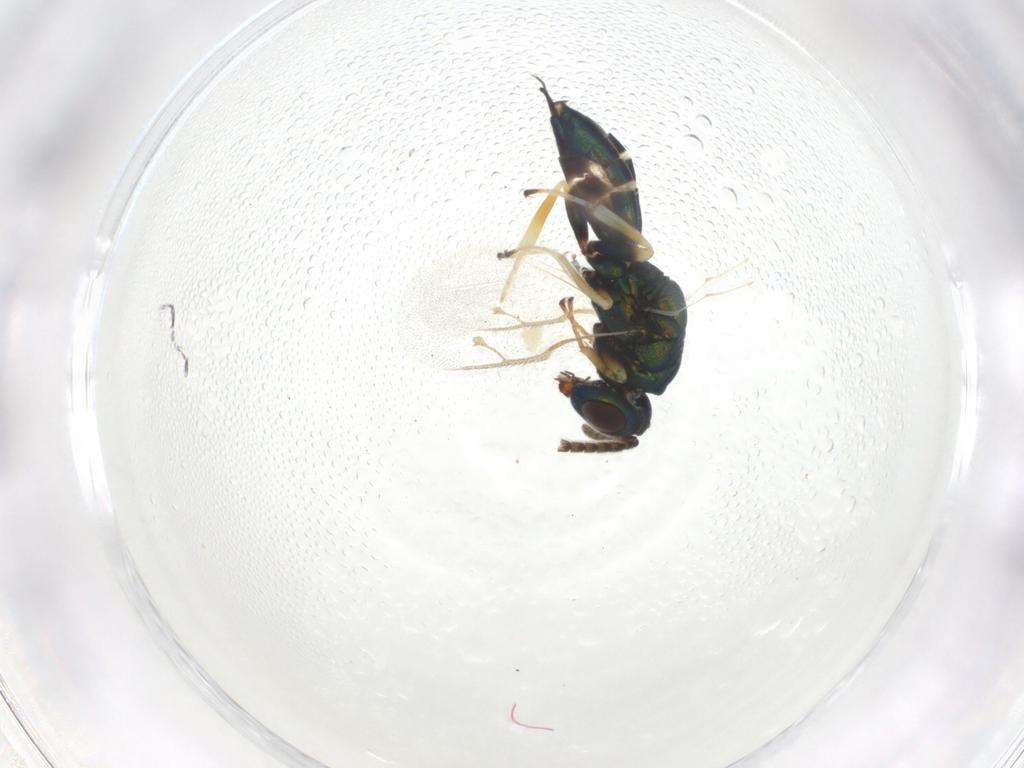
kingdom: Animalia
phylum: Arthropoda
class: Insecta
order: Hymenoptera
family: Pteromalidae
